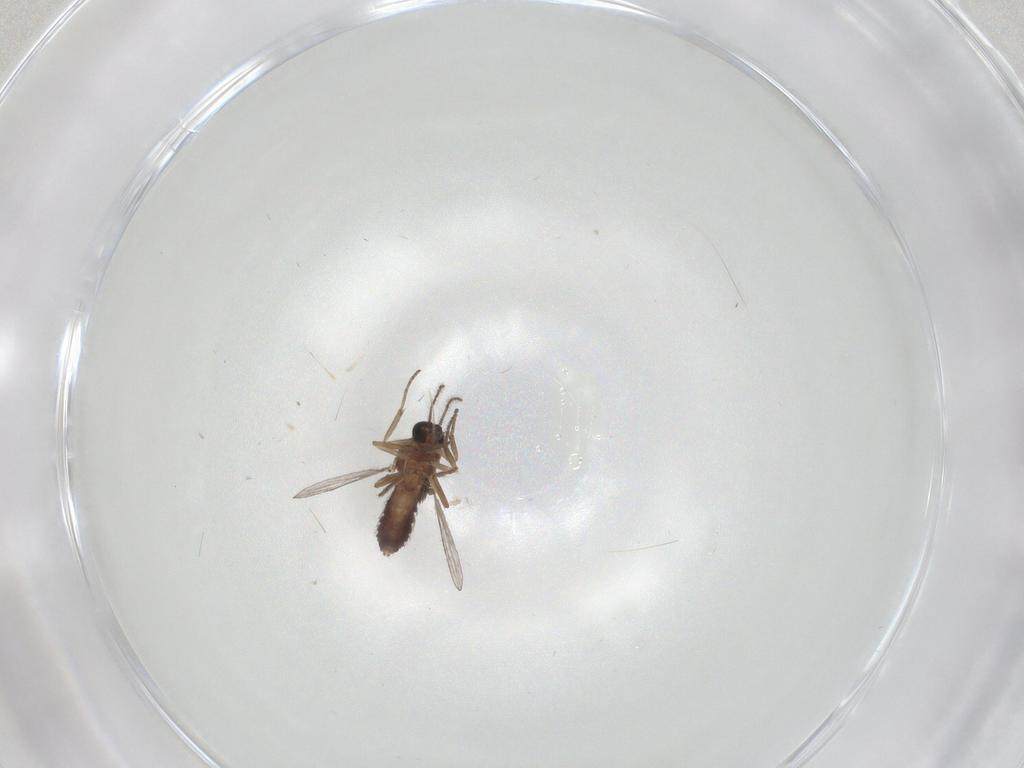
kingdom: Animalia
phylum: Arthropoda
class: Insecta
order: Diptera
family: Ceratopogonidae
